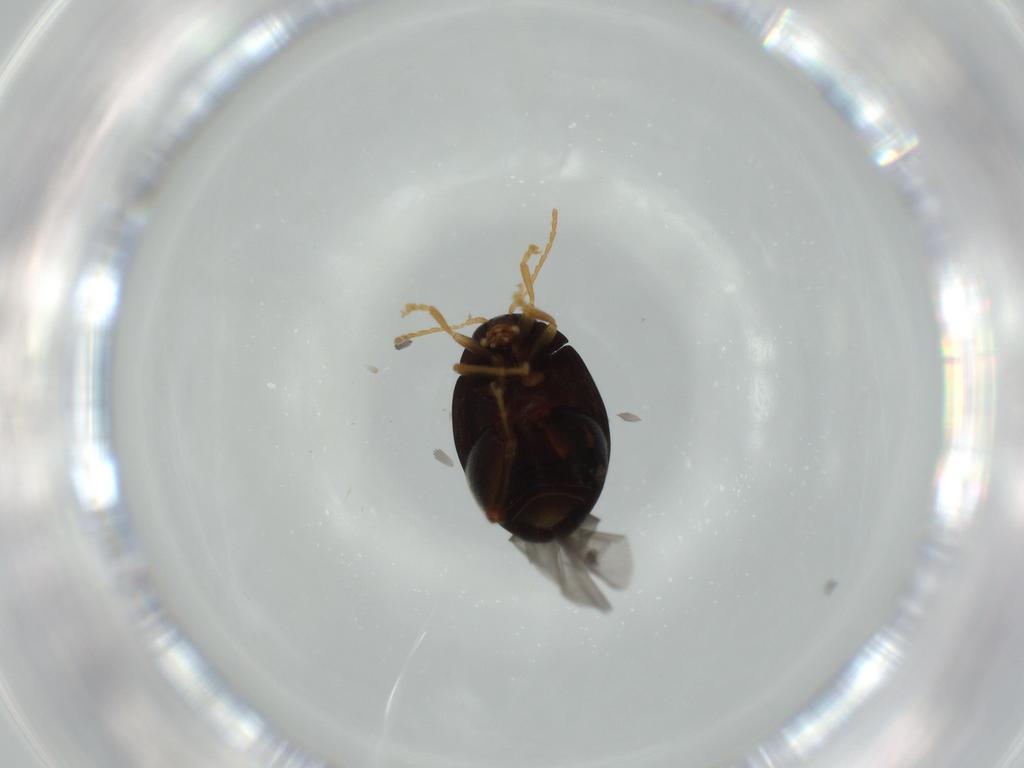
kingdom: Animalia
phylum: Arthropoda
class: Insecta
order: Coleoptera
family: Chrysomelidae
